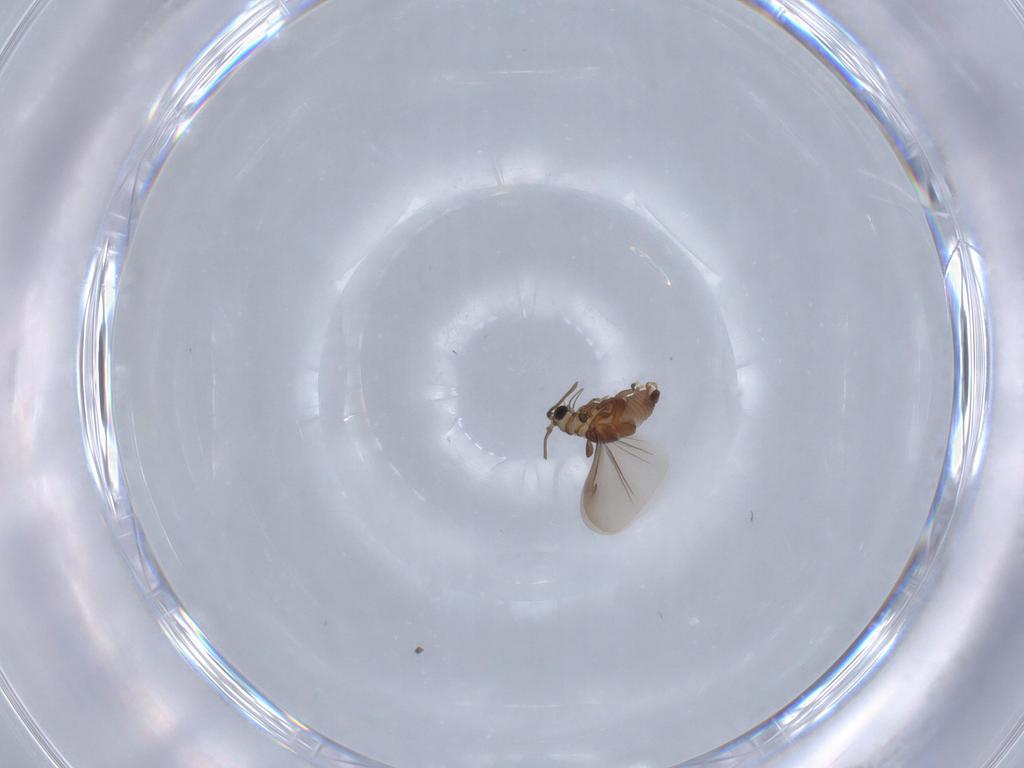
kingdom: Animalia
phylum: Arthropoda
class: Insecta
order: Strepsiptera
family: Myrmecolacidae
